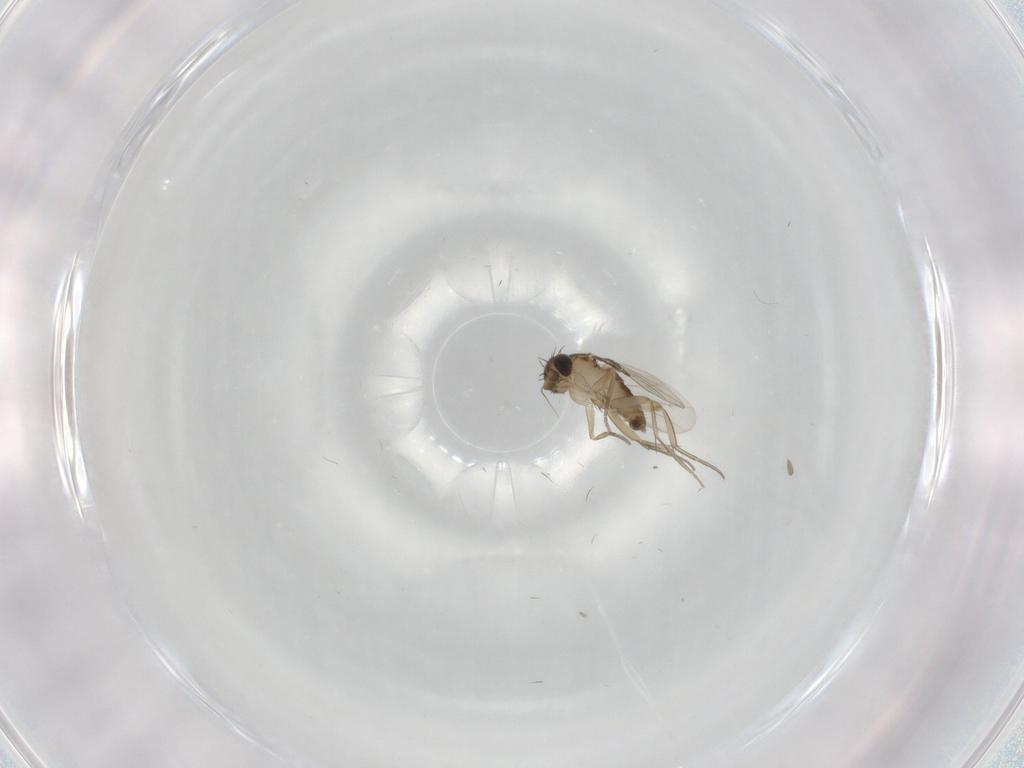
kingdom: Animalia
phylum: Arthropoda
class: Insecta
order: Diptera
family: Phoridae
